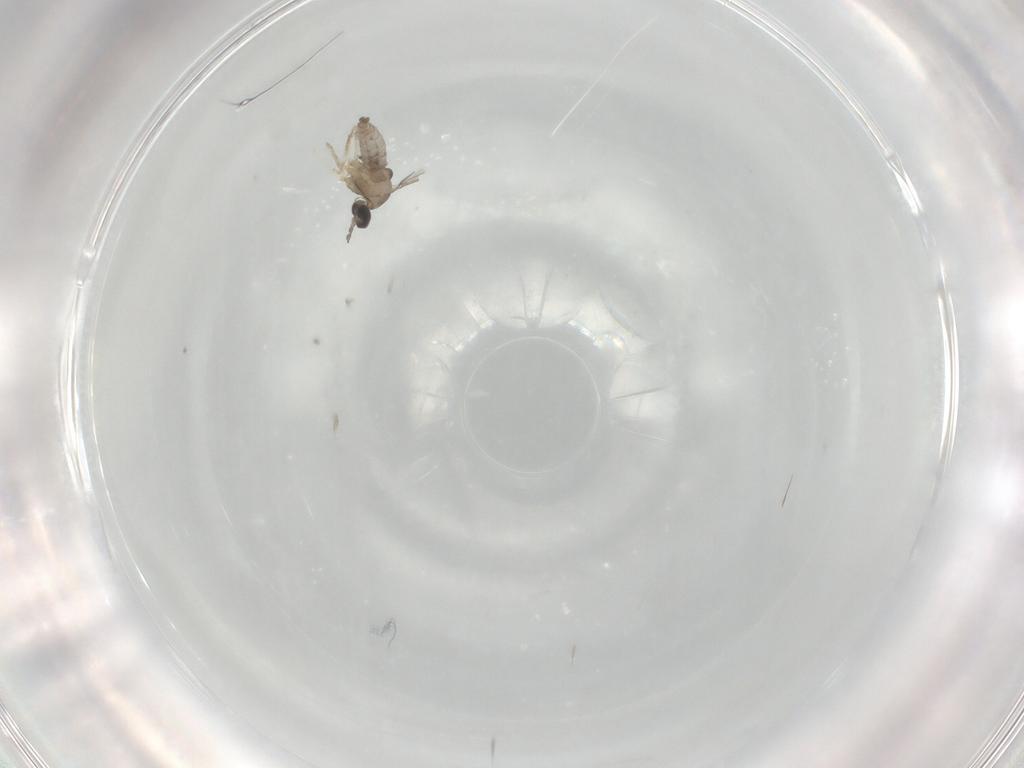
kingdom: Animalia
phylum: Arthropoda
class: Insecta
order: Diptera
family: Cecidomyiidae
